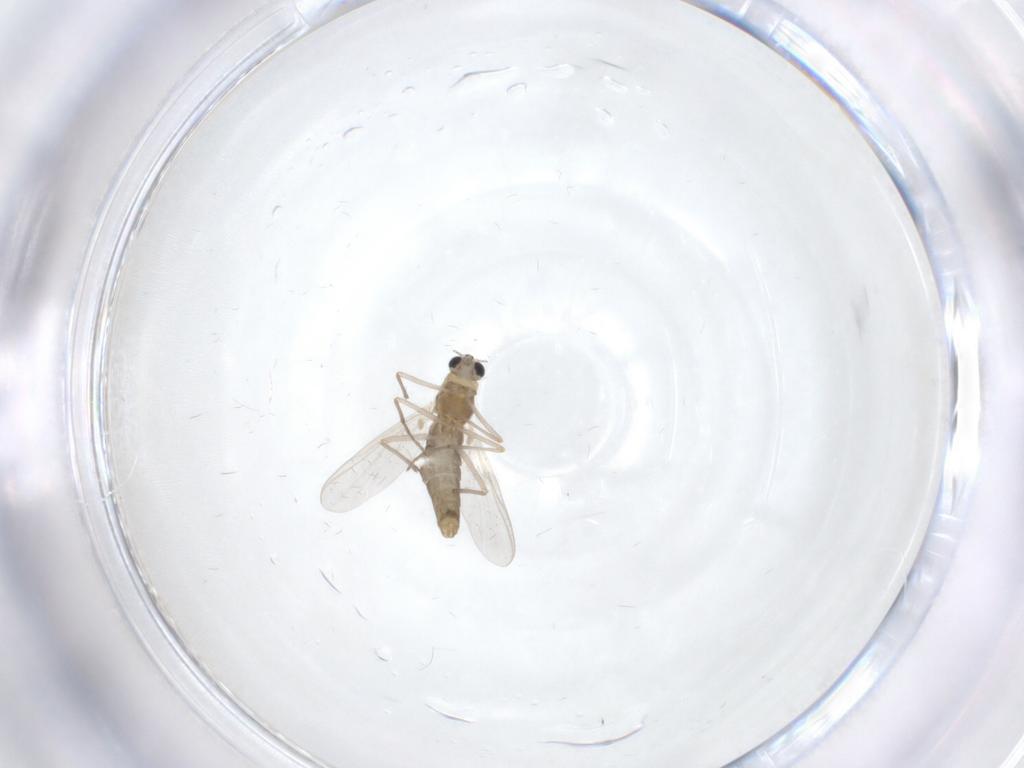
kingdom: Animalia
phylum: Arthropoda
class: Insecta
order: Diptera
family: Chironomidae
